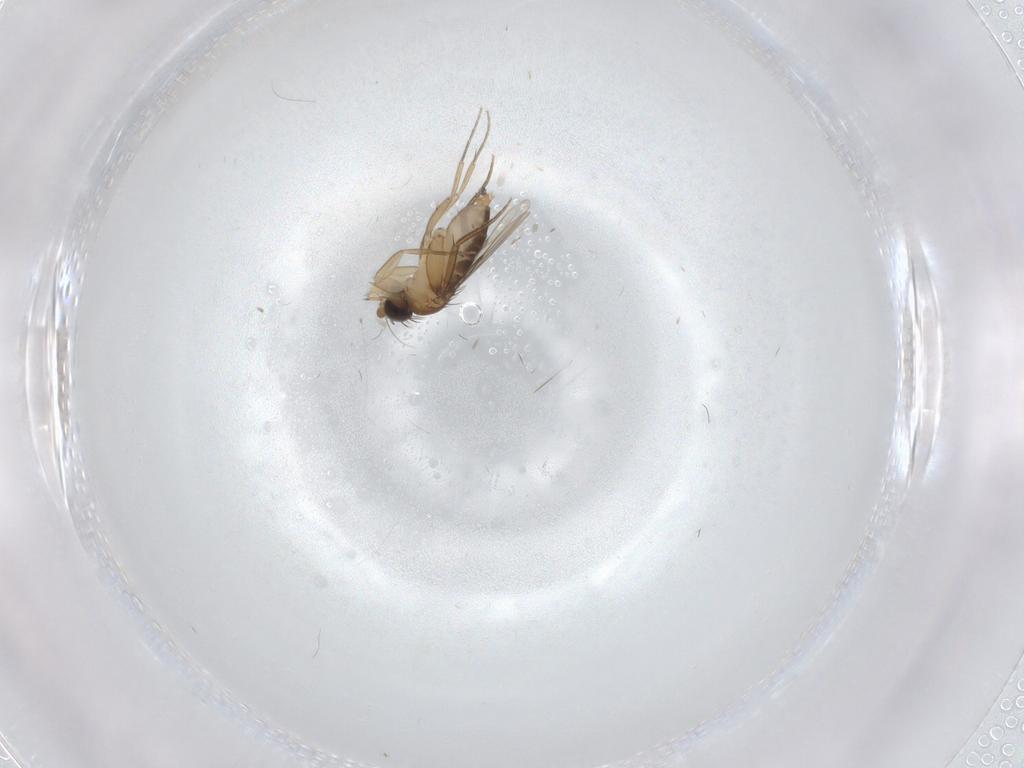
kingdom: Animalia
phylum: Arthropoda
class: Insecta
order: Diptera
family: Phoridae
